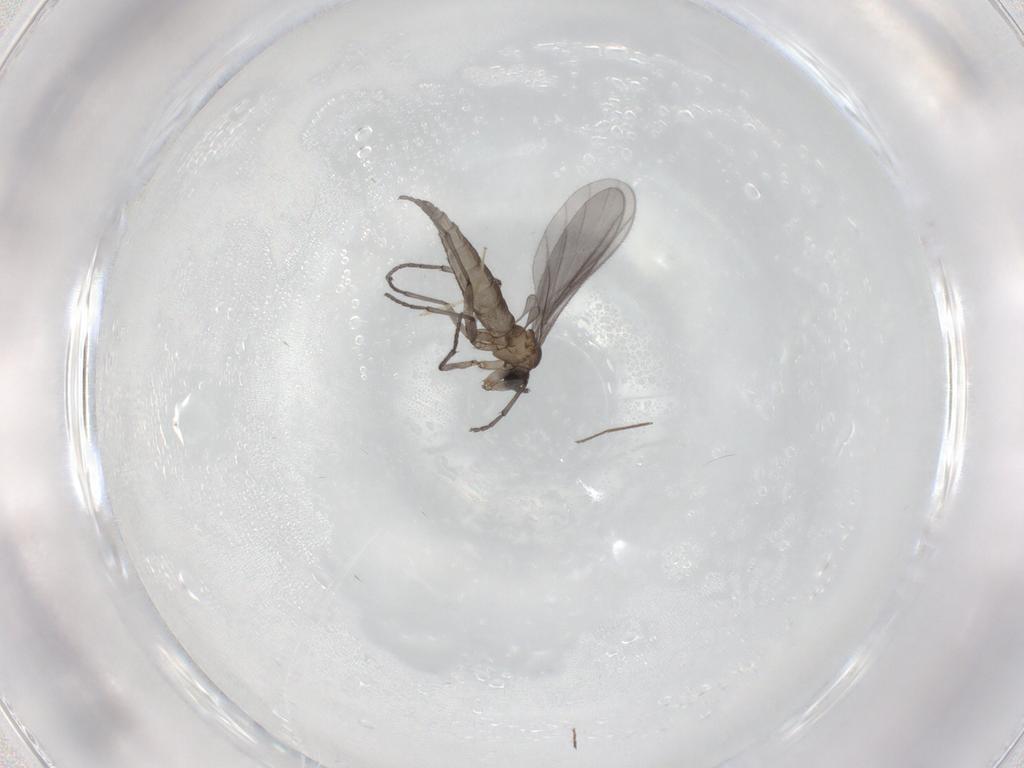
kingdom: Animalia
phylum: Arthropoda
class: Insecta
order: Diptera
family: Sciaridae
